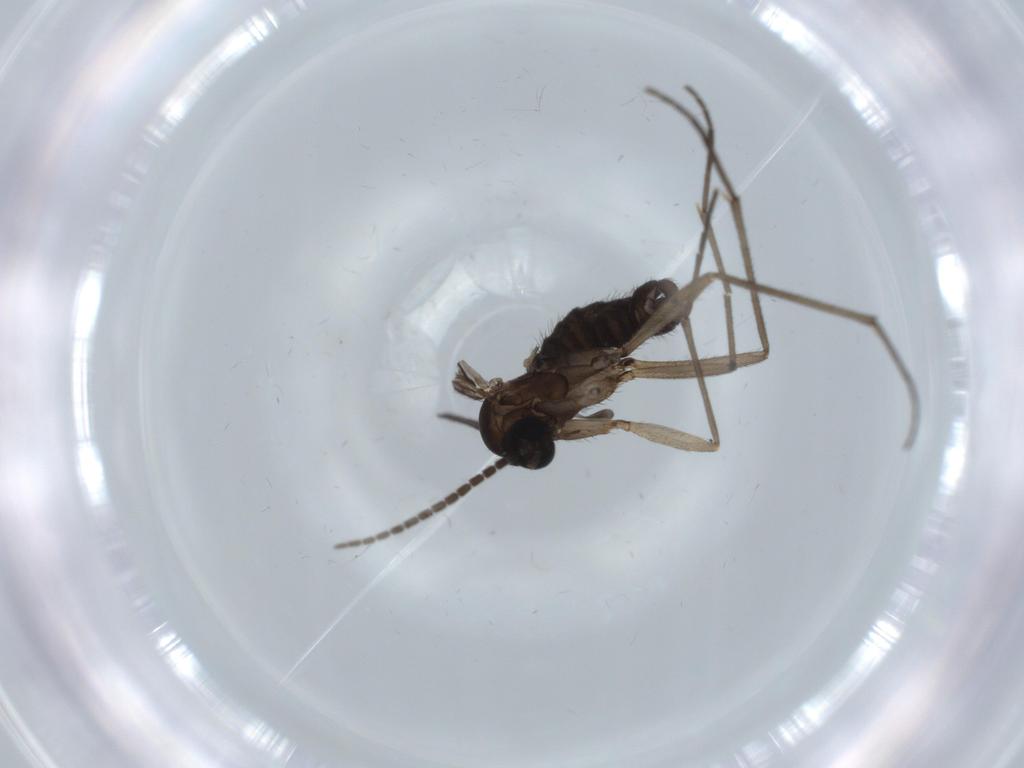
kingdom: Animalia
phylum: Arthropoda
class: Insecta
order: Diptera
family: Sciaridae
